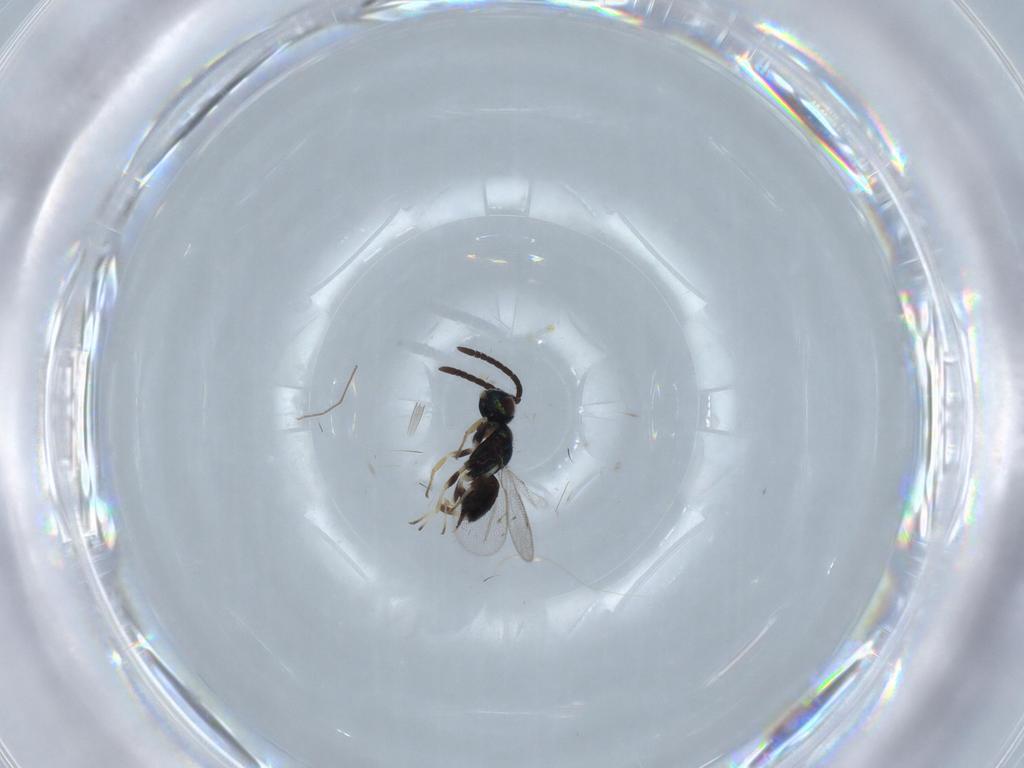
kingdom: Animalia
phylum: Arthropoda
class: Insecta
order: Hymenoptera
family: Eupelmidae
